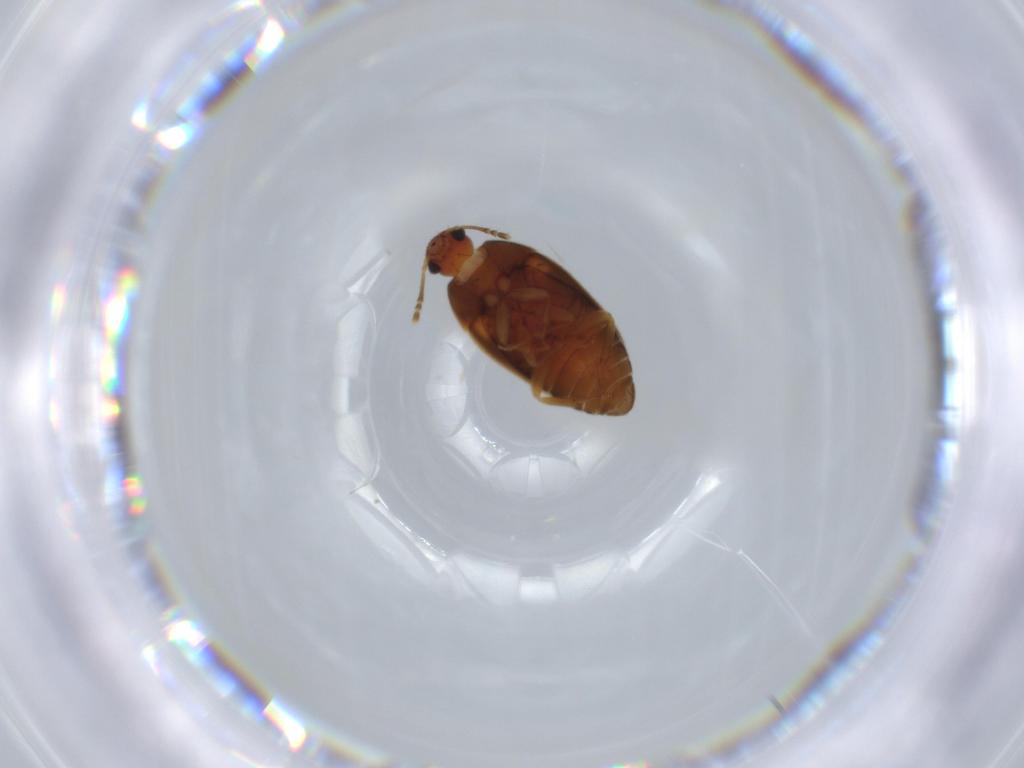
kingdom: Animalia
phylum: Arthropoda
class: Insecta
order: Coleoptera
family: Mycetophagidae
